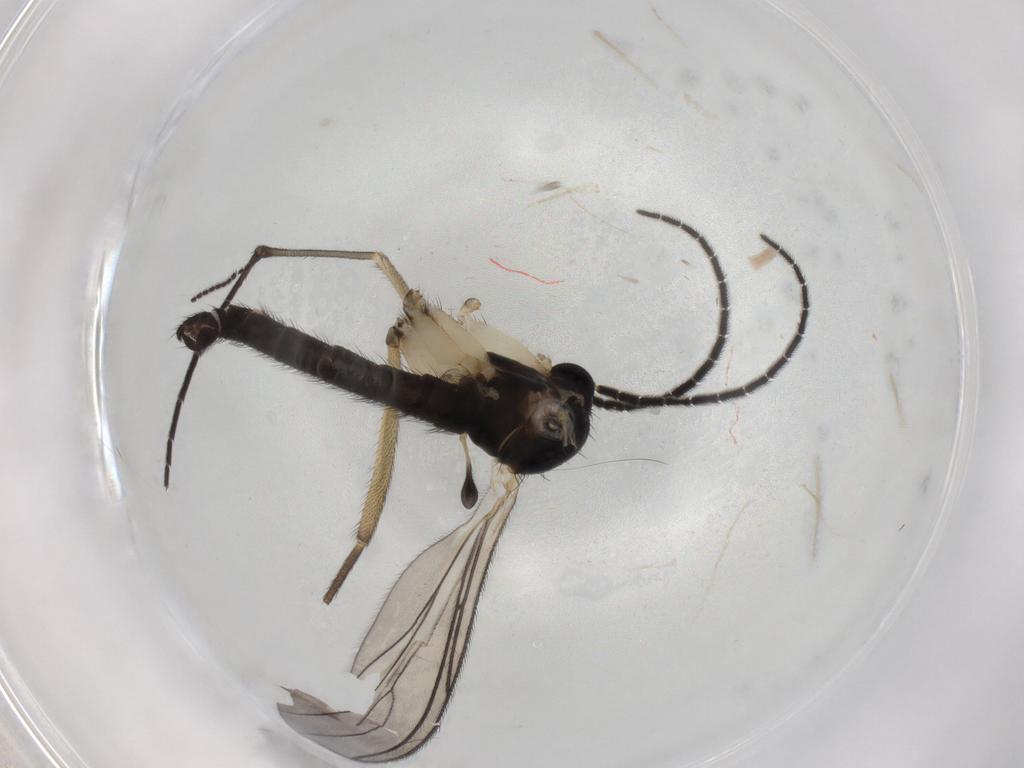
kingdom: Animalia
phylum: Arthropoda
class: Insecta
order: Diptera
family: Sciaridae
